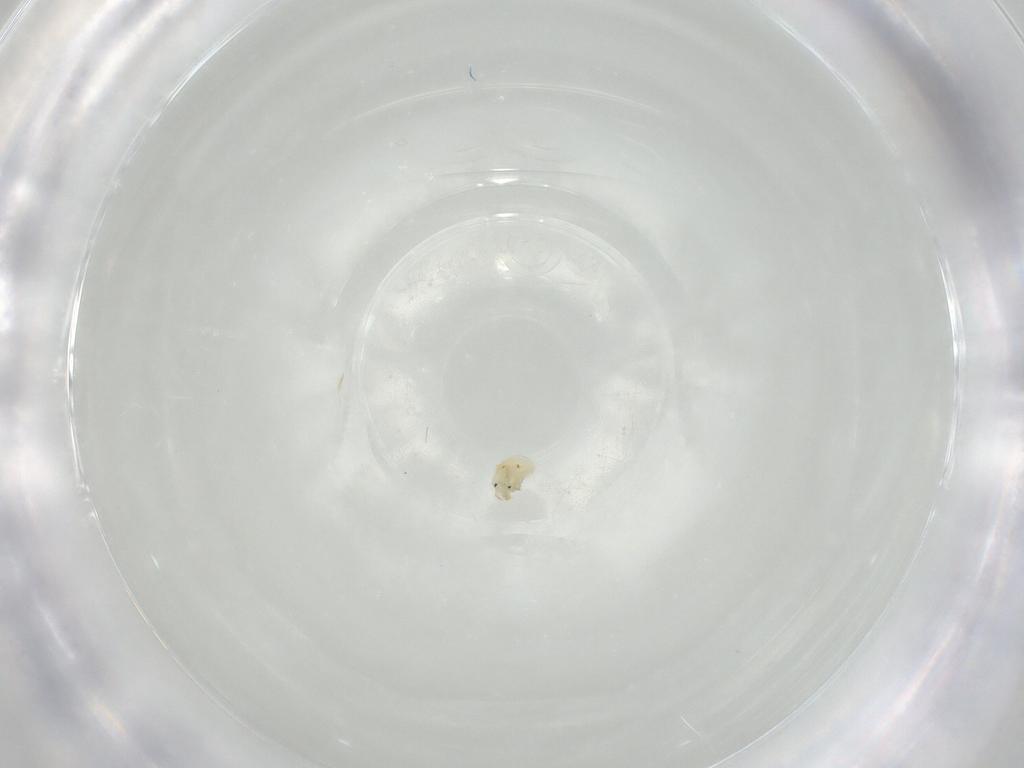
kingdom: Animalia
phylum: Arthropoda
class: Arachnida
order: Trombidiformes
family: Arrenuridae
